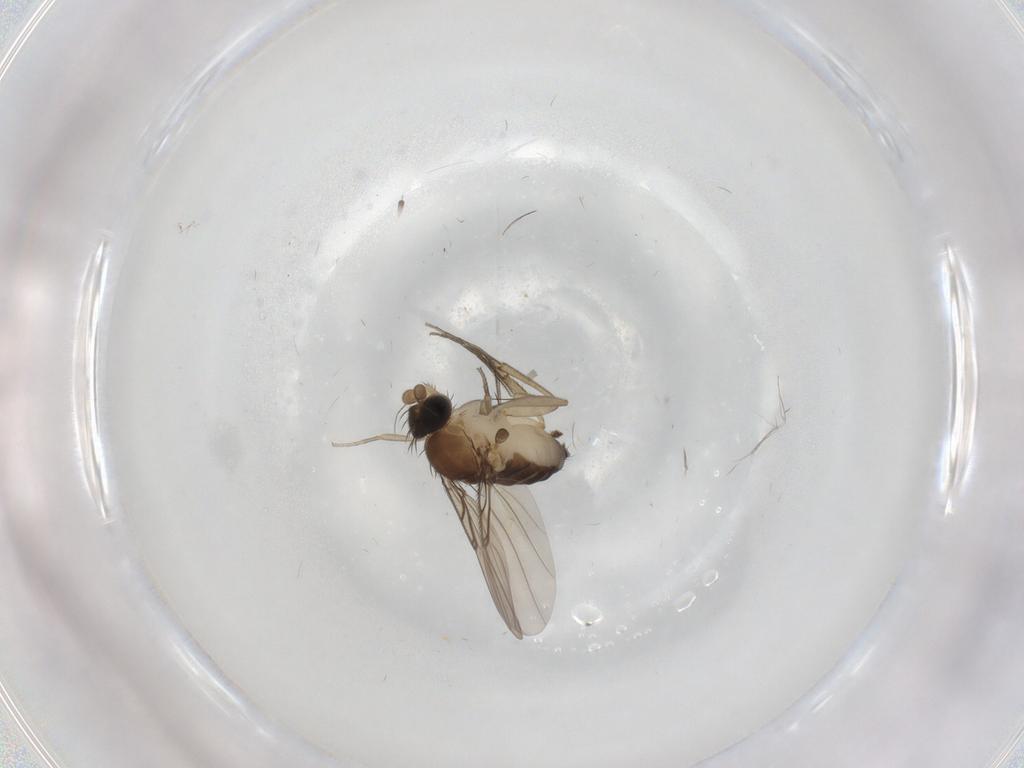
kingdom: Animalia
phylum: Arthropoda
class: Insecta
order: Diptera
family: Phoridae
